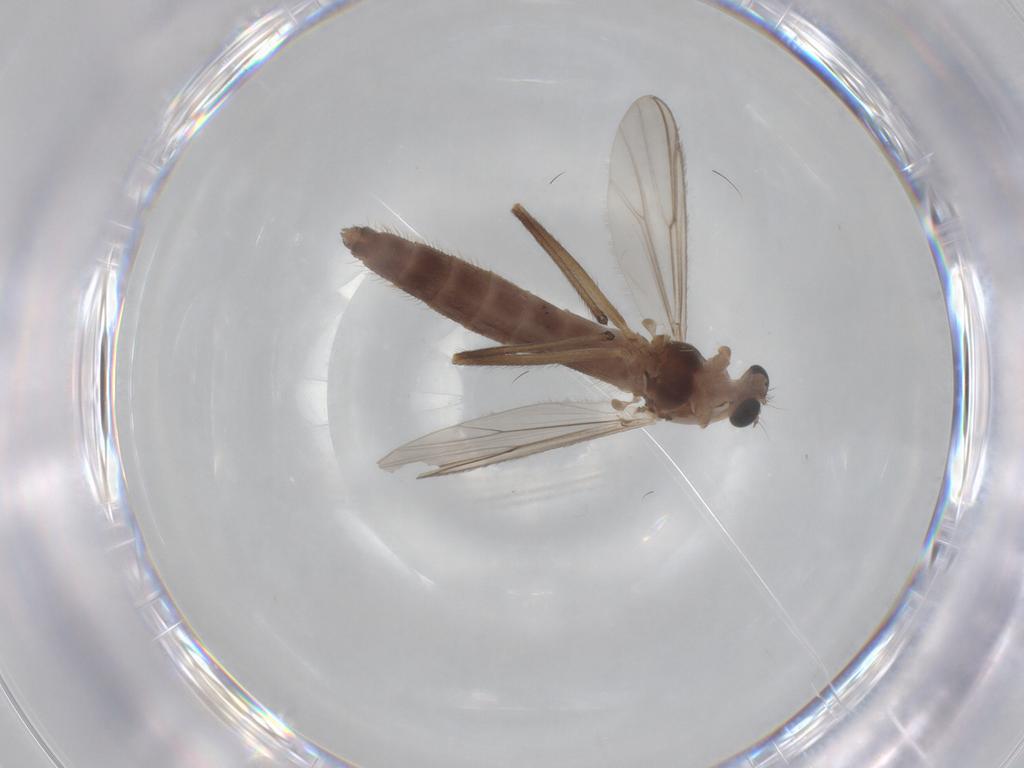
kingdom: Animalia
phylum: Arthropoda
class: Insecta
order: Diptera
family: Chironomidae
